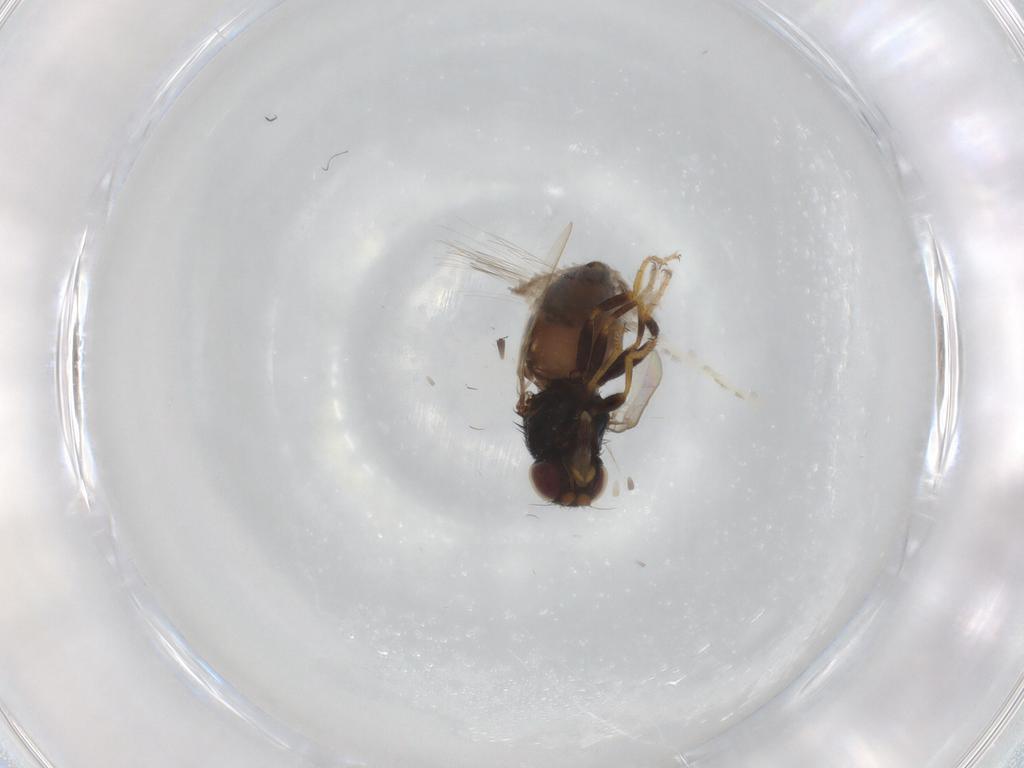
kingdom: Animalia
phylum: Arthropoda
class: Insecta
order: Diptera
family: Chloropidae
